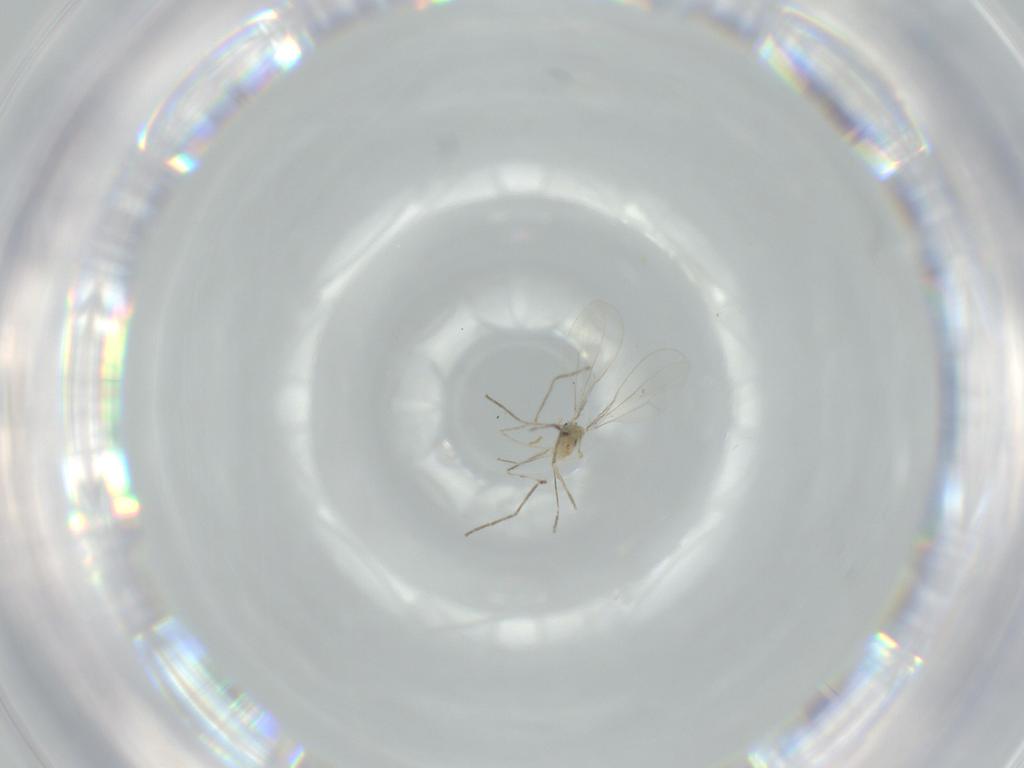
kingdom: Animalia
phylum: Arthropoda
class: Insecta
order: Diptera
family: Cecidomyiidae
